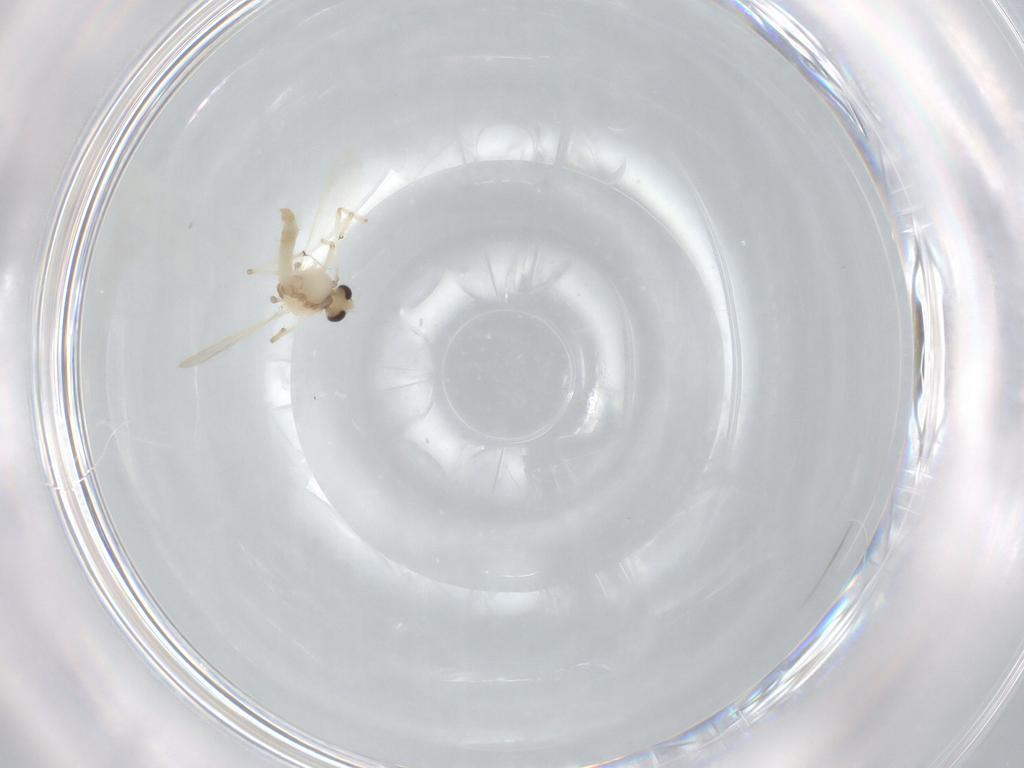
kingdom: Animalia
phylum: Arthropoda
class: Insecta
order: Diptera
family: Chironomidae
